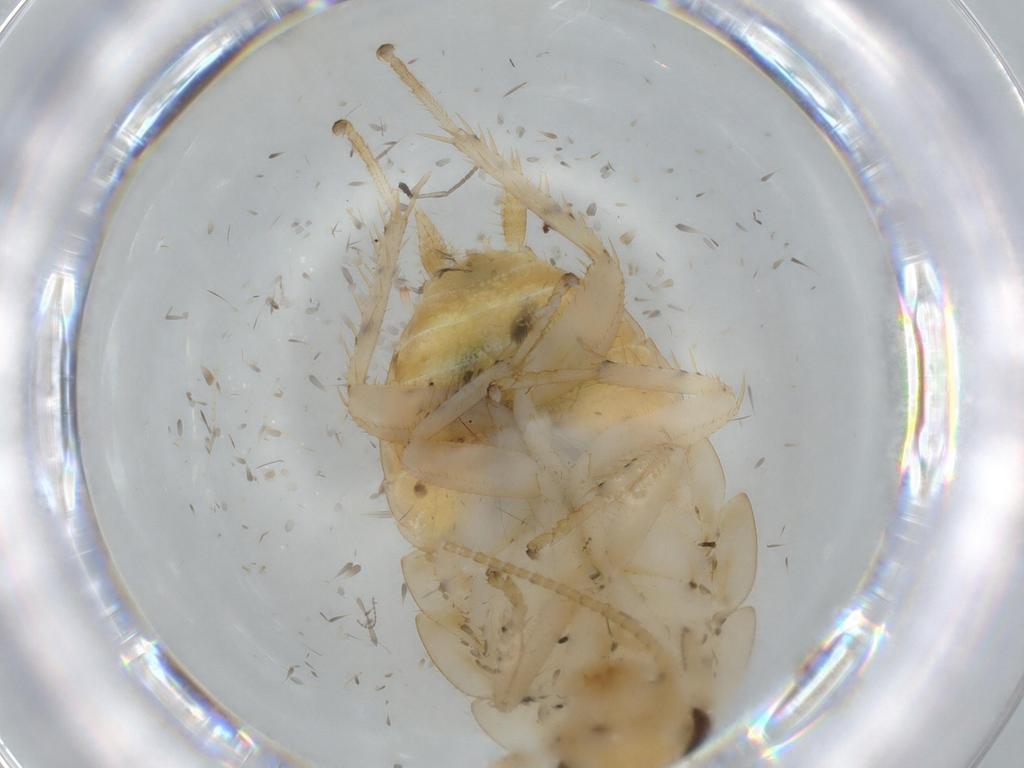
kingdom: Animalia
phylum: Arthropoda
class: Insecta
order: Blattodea
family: Ectobiidae
